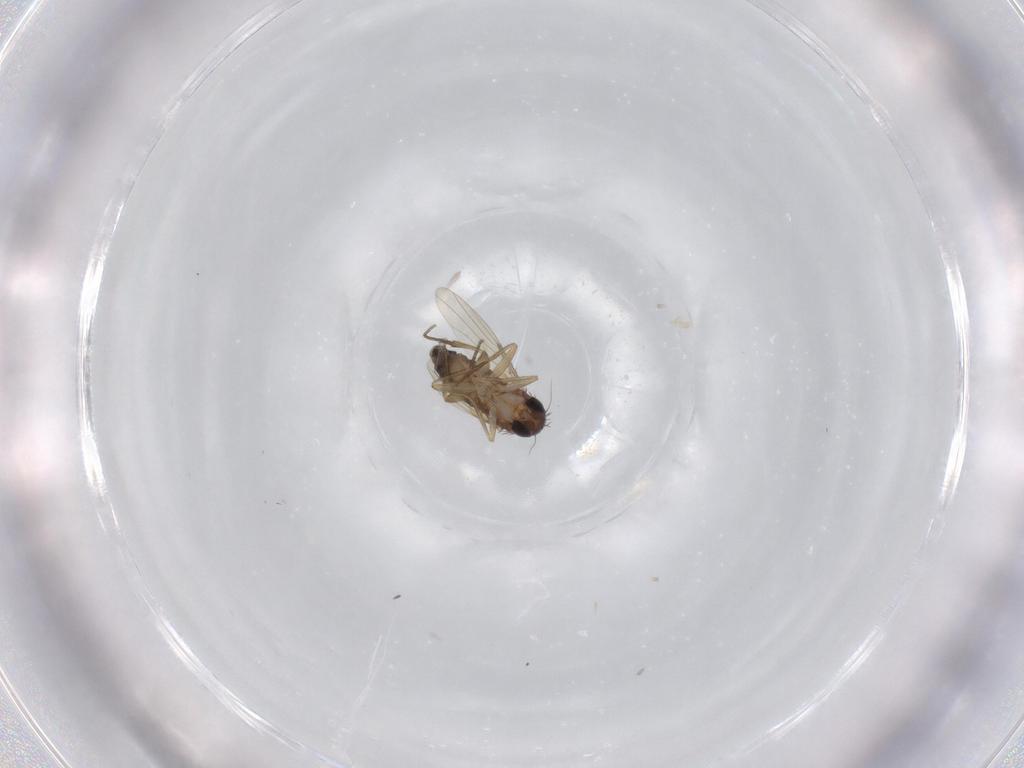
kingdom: Animalia
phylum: Arthropoda
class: Insecta
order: Diptera
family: Phoridae
